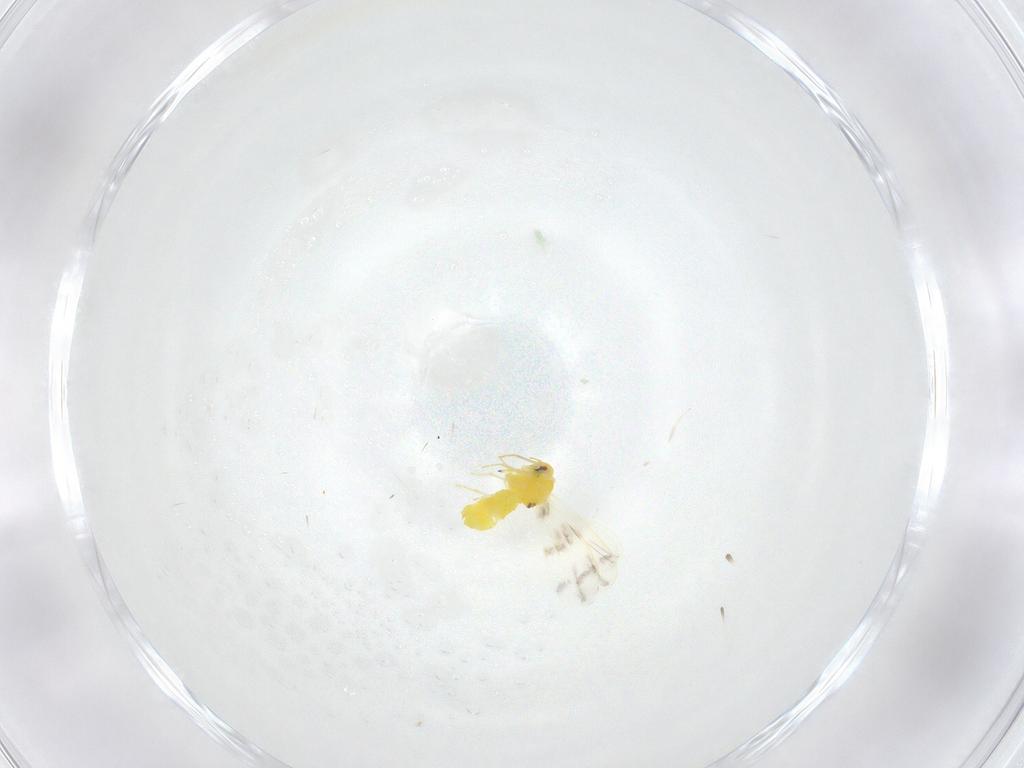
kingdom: Animalia
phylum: Arthropoda
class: Insecta
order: Hemiptera
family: Aleyrodidae
